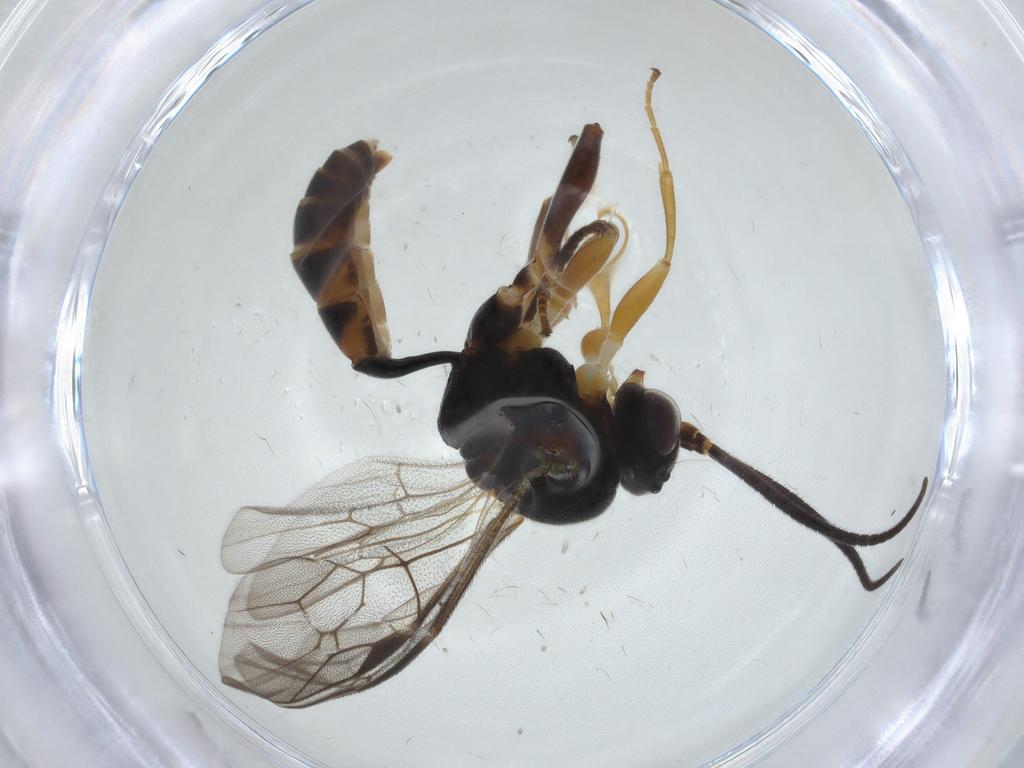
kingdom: Animalia
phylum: Arthropoda
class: Insecta
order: Hymenoptera
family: Ichneumonidae
